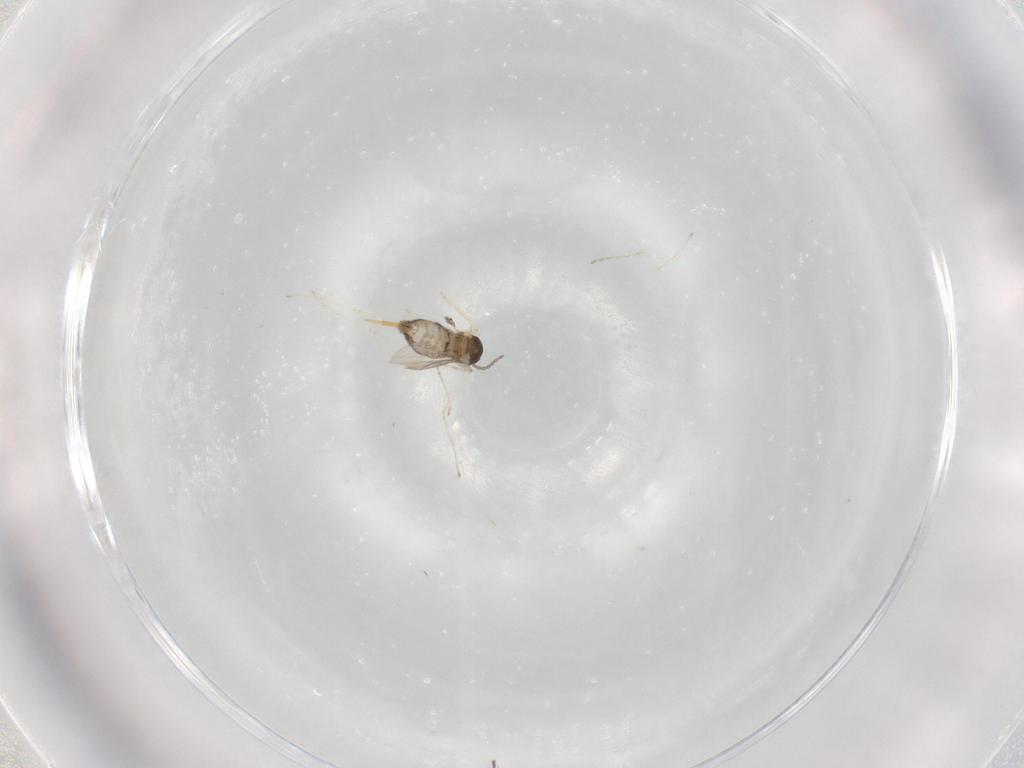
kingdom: Animalia
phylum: Arthropoda
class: Insecta
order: Diptera
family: Cecidomyiidae
